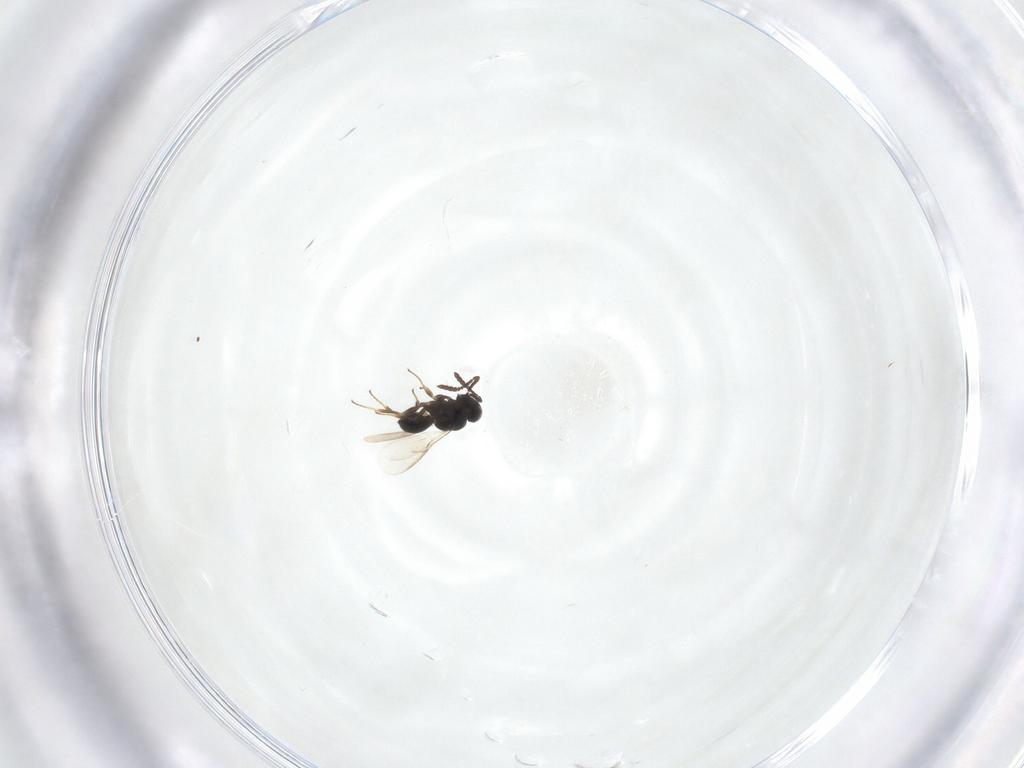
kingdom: Animalia
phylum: Arthropoda
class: Insecta
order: Hymenoptera
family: Scelionidae
